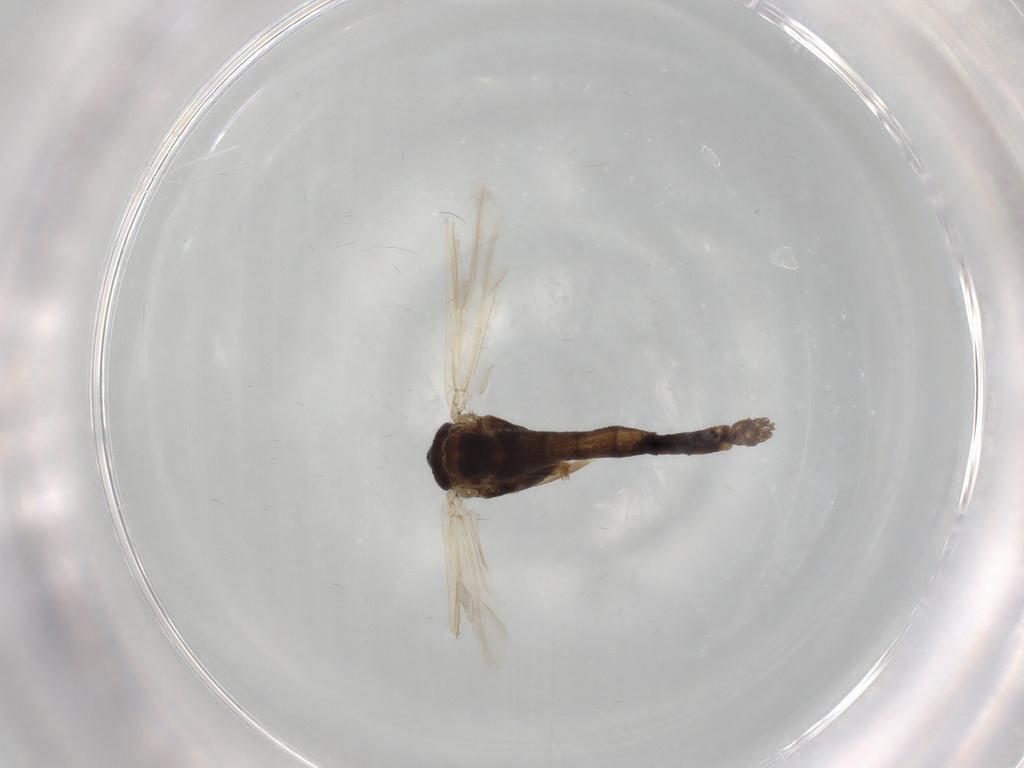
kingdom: Animalia
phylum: Arthropoda
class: Insecta
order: Diptera
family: Chironomidae
